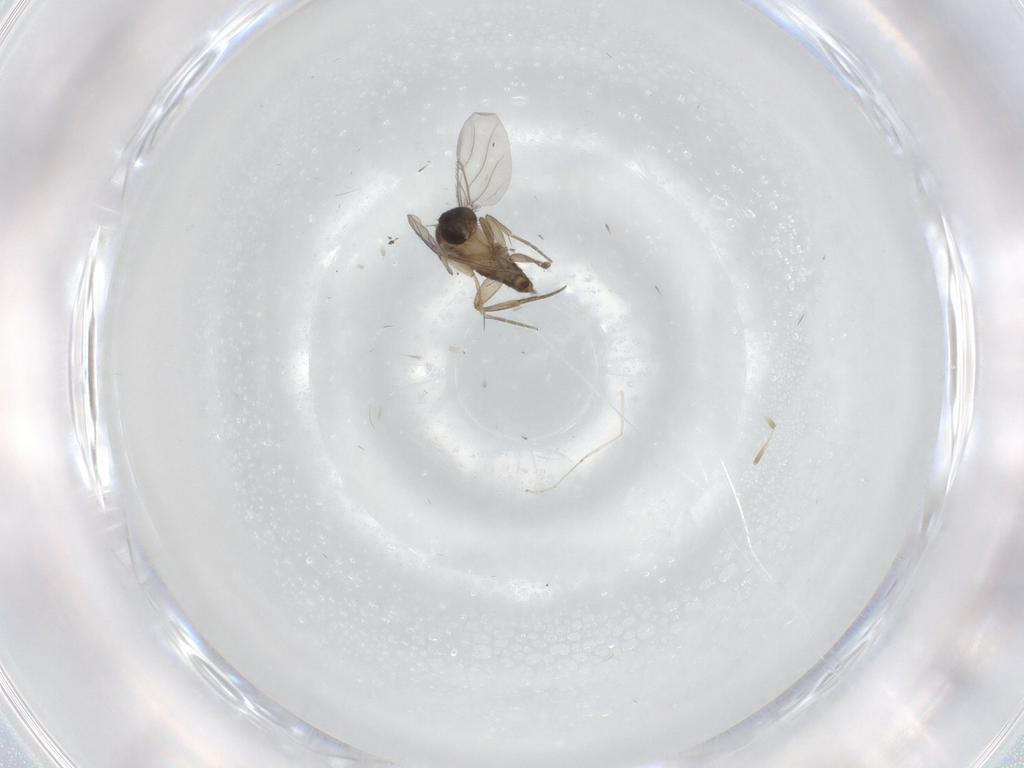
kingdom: Animalia
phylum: Arthropoda
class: Insecta
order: Diptera
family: Phoridae
